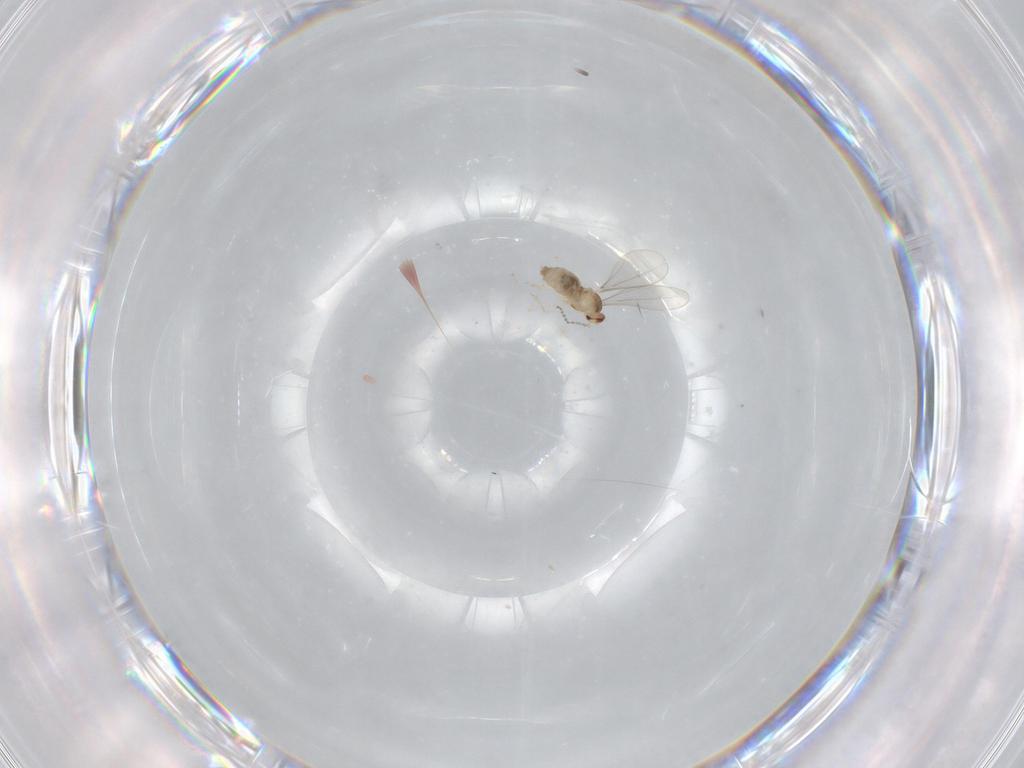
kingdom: Animalia
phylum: Arthropoda
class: Insecta
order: Diptera
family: Cecidomyiidae
